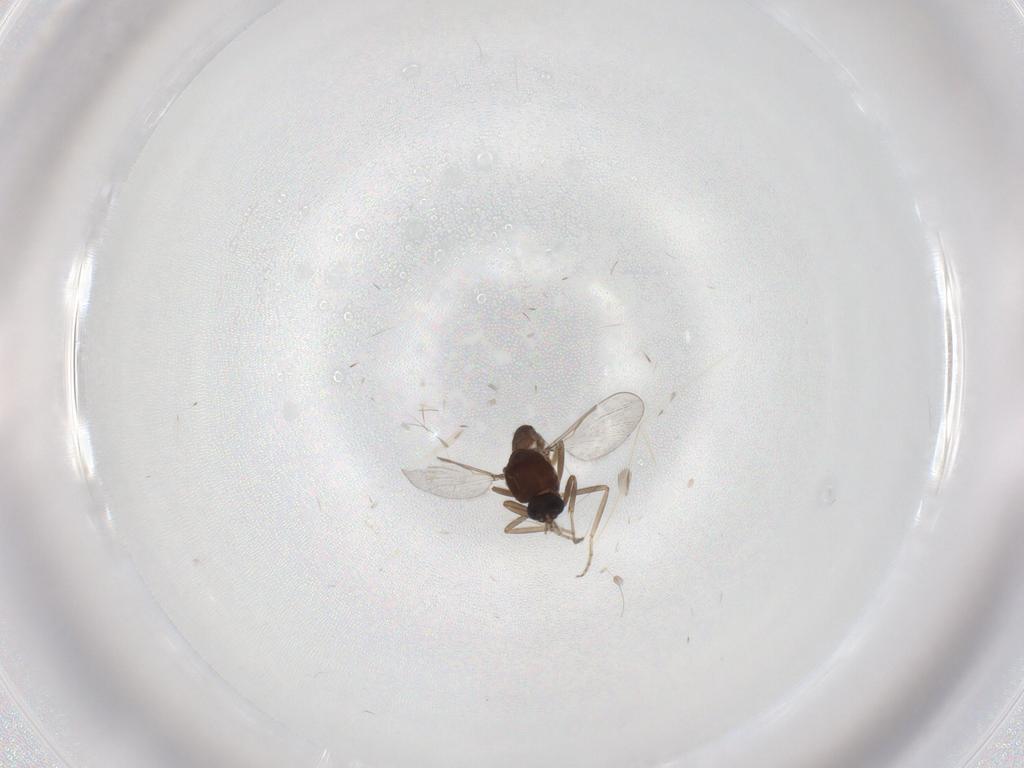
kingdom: Animalia
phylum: Arthropoda
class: Insecta
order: Diptera
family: Ceratopogonidae
